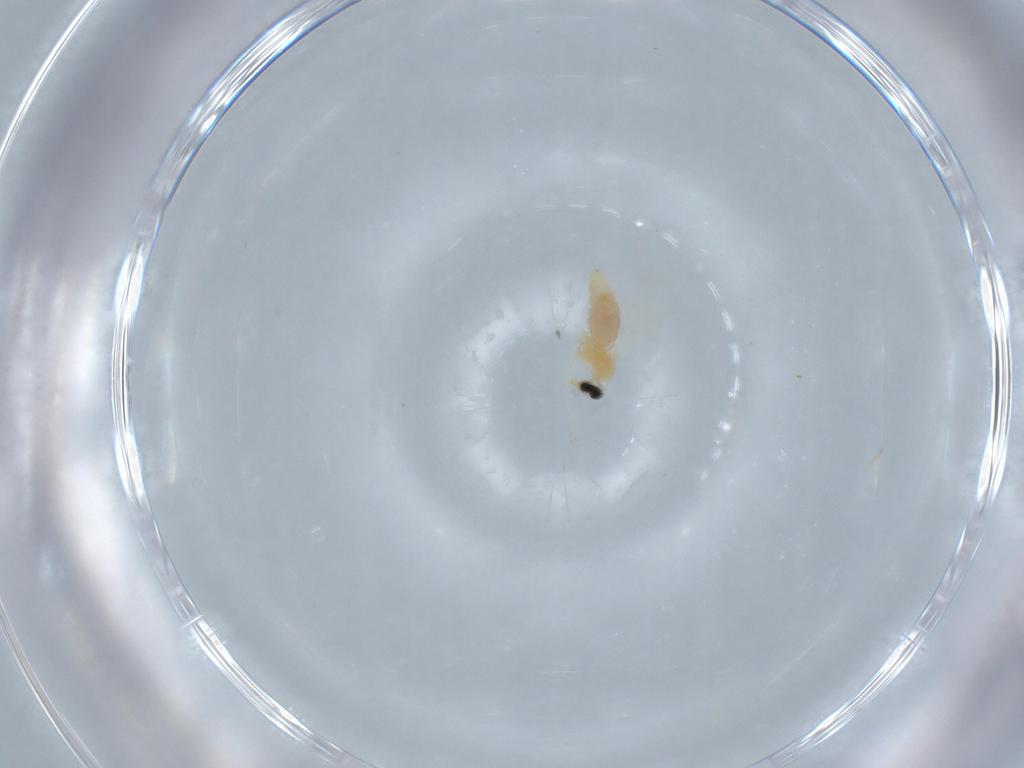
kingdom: Animalia
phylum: Arthropoda
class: Insecta
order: Diptera
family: Cecidomyiidae
